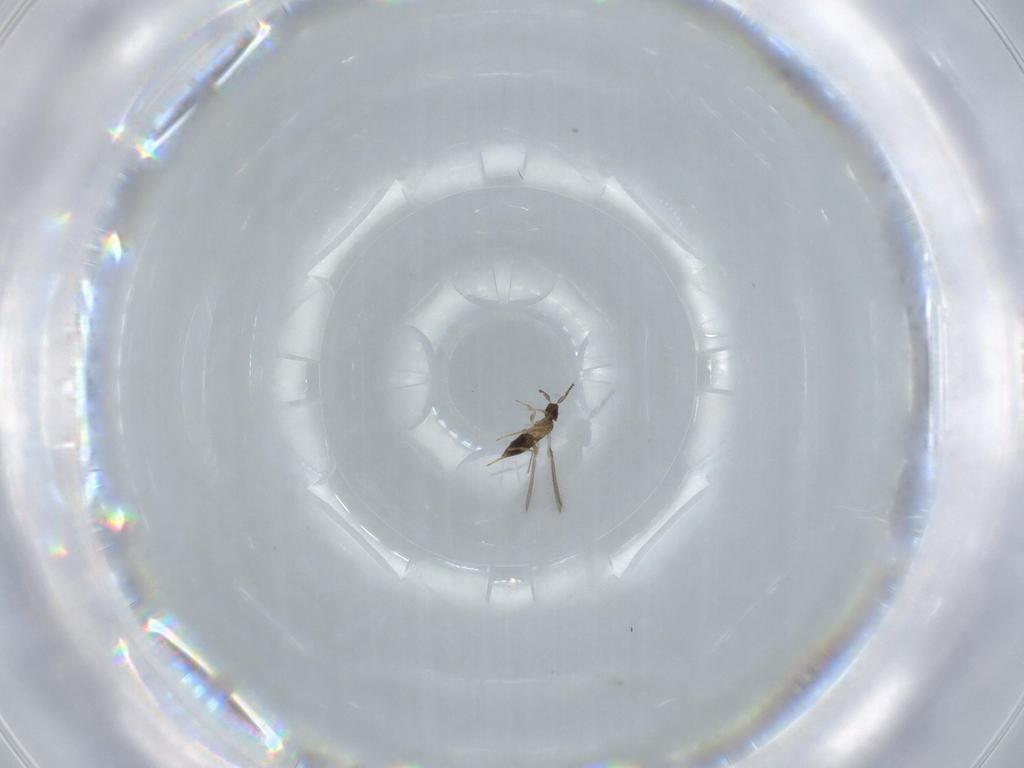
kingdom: Animalia
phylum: Arthropoda
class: Insecta
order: Hymenoptera
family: Mymaridae
